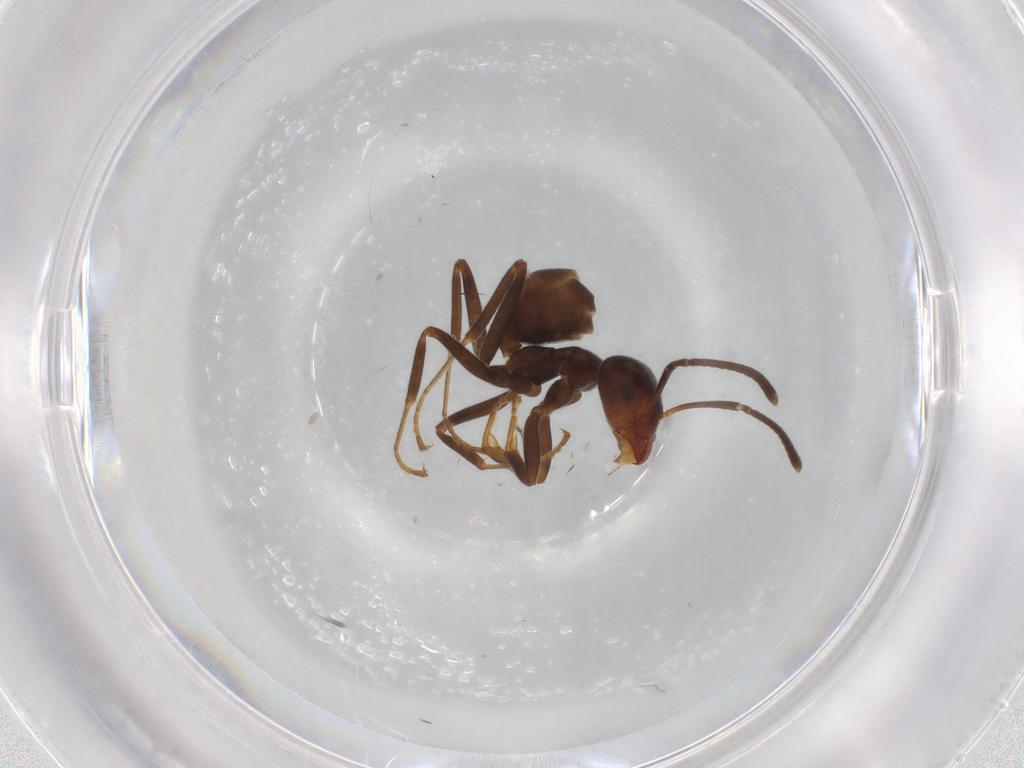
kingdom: Animalia
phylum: Arthropoda
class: Insecta
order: Hymenoptera
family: Formicidae
